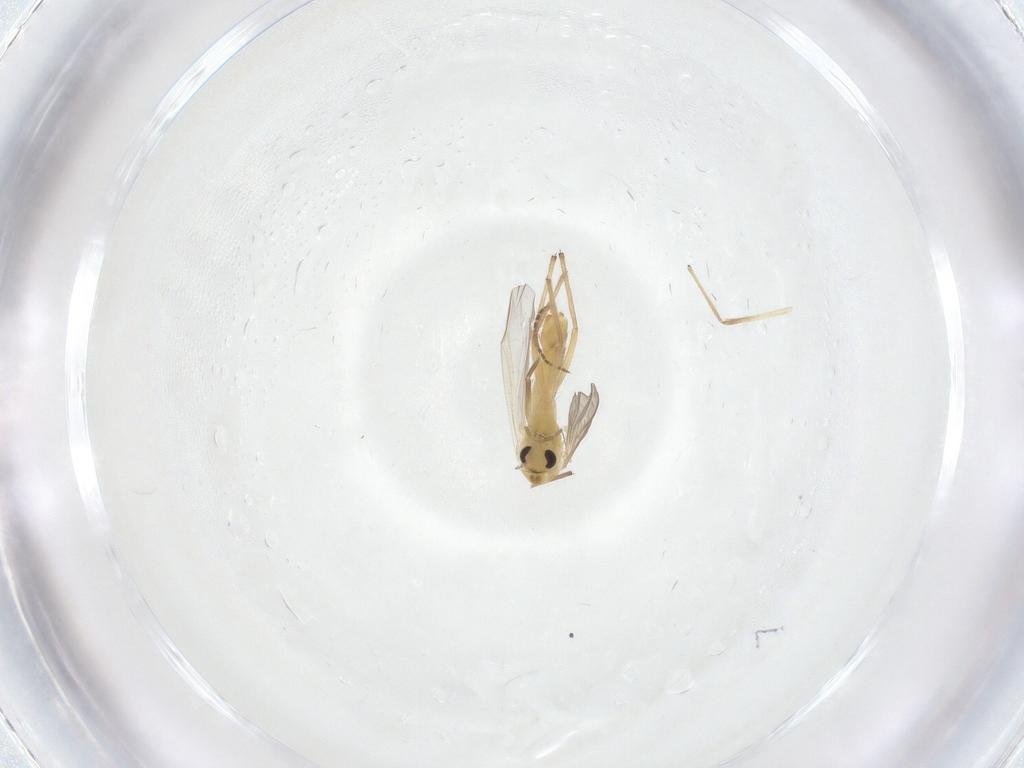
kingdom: Animalia
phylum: Arthropoda
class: Insecta
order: Diptera
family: Chironomidae
